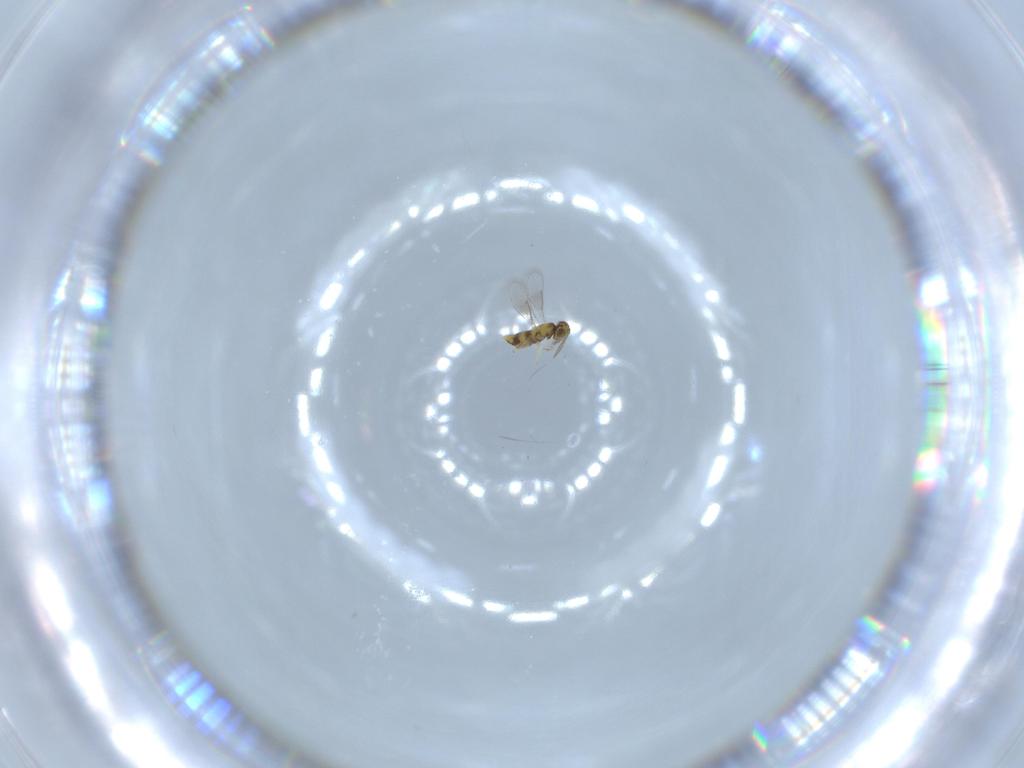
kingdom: Animalia
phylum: Arthropoda
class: Insecta
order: Hymenoptera
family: Aphelinidae
